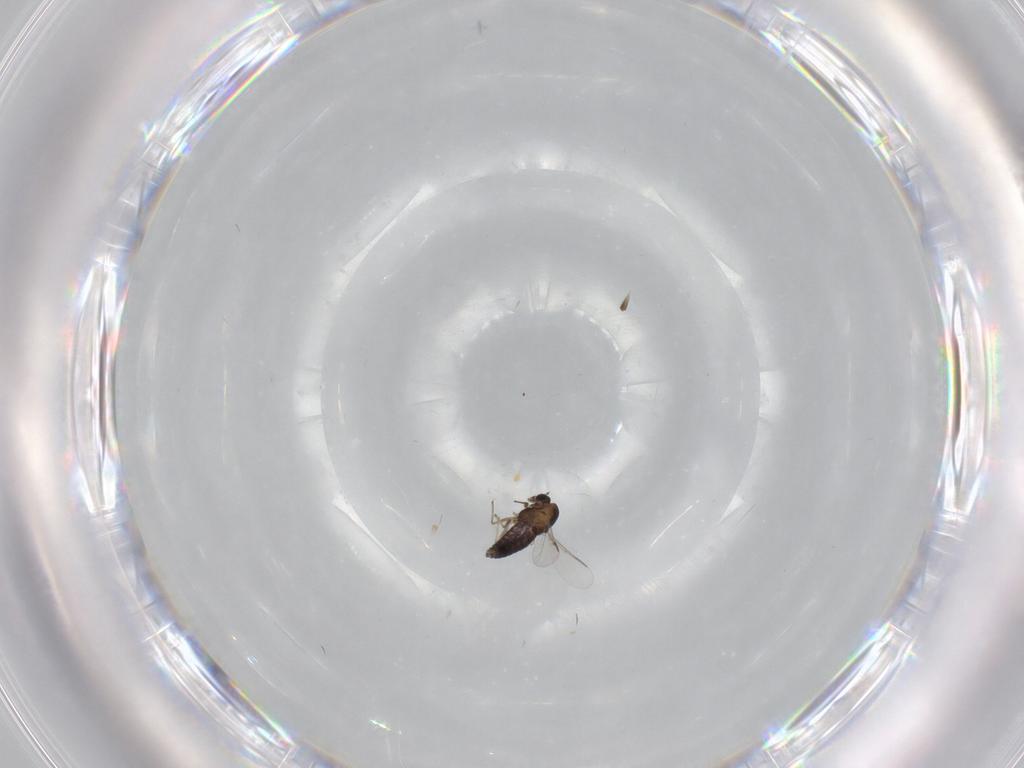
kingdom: Animalia
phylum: Arthropoda
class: Insecta
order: Diptera
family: Chironomidae
